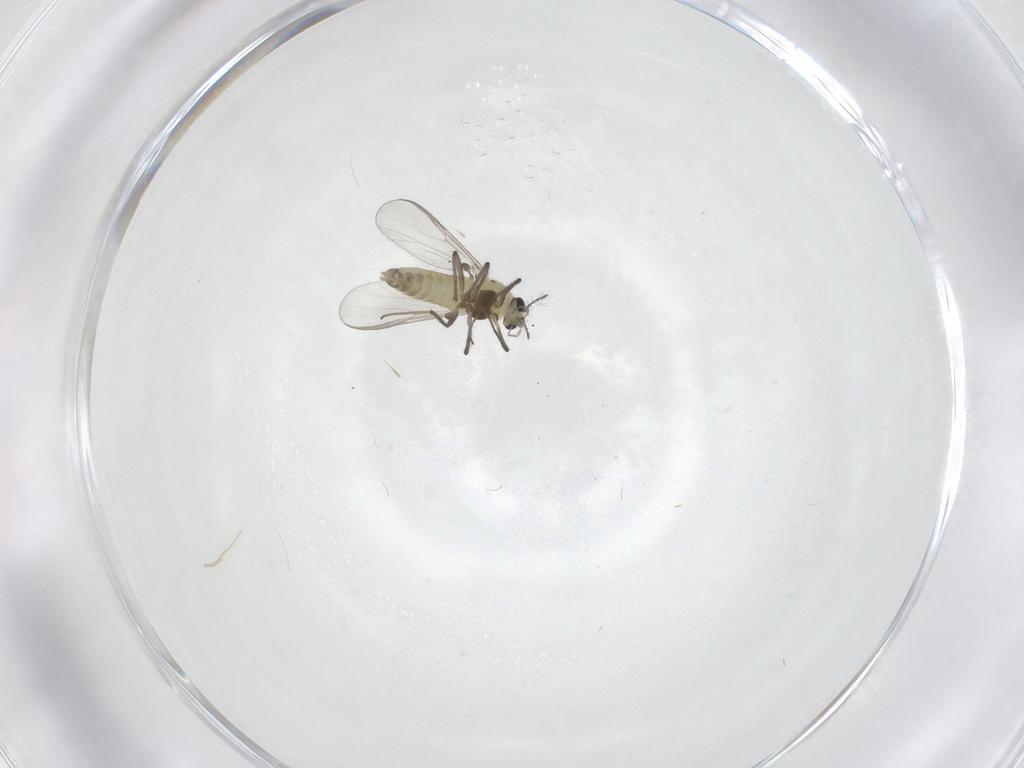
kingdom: Animalia
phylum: Arthropoda
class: Insecta
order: Diptera
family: Chironomidae
